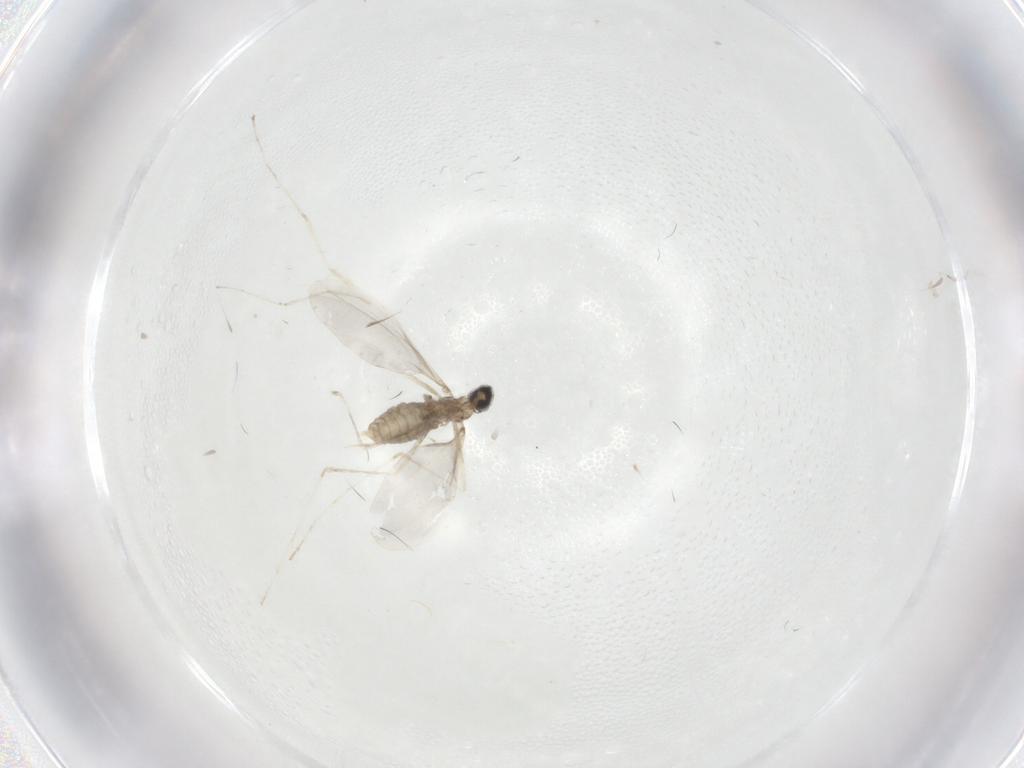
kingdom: Animalia
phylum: Arthropoda
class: Insecta
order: Diptera
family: Cecidomyiidae
